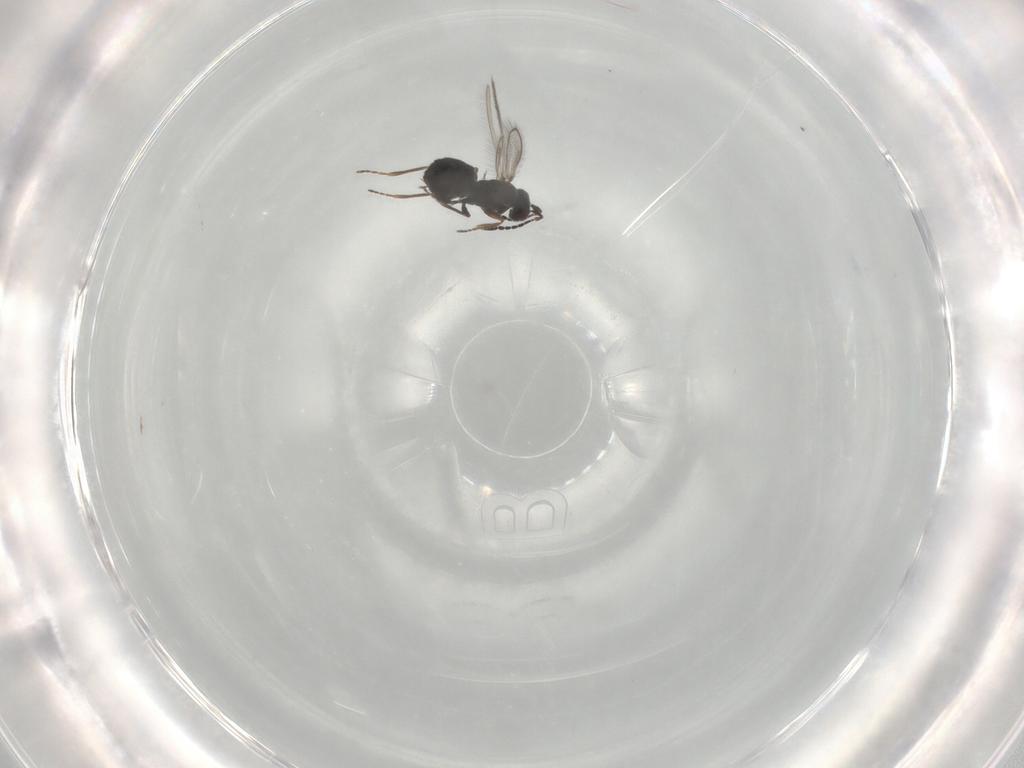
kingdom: Animalia
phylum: Arthropoda
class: Insecta
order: Hymenoptera
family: Mymaridae
